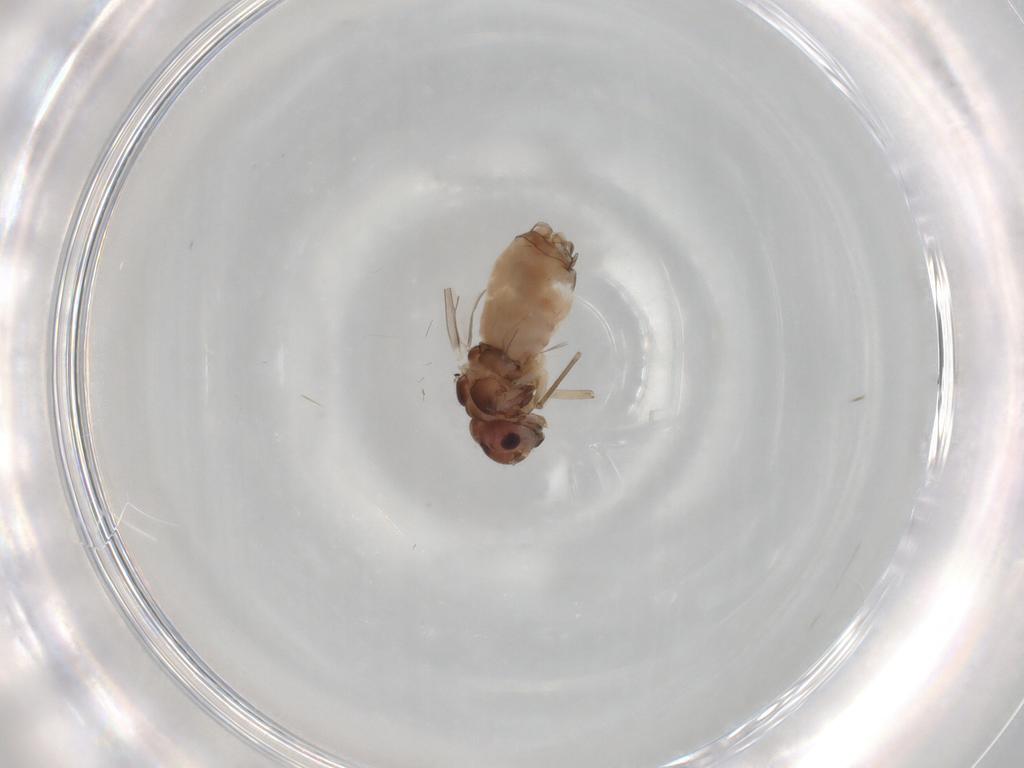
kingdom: Animalia
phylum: Arthropoda
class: Insecta
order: Psocodea
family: Peripsocidae
